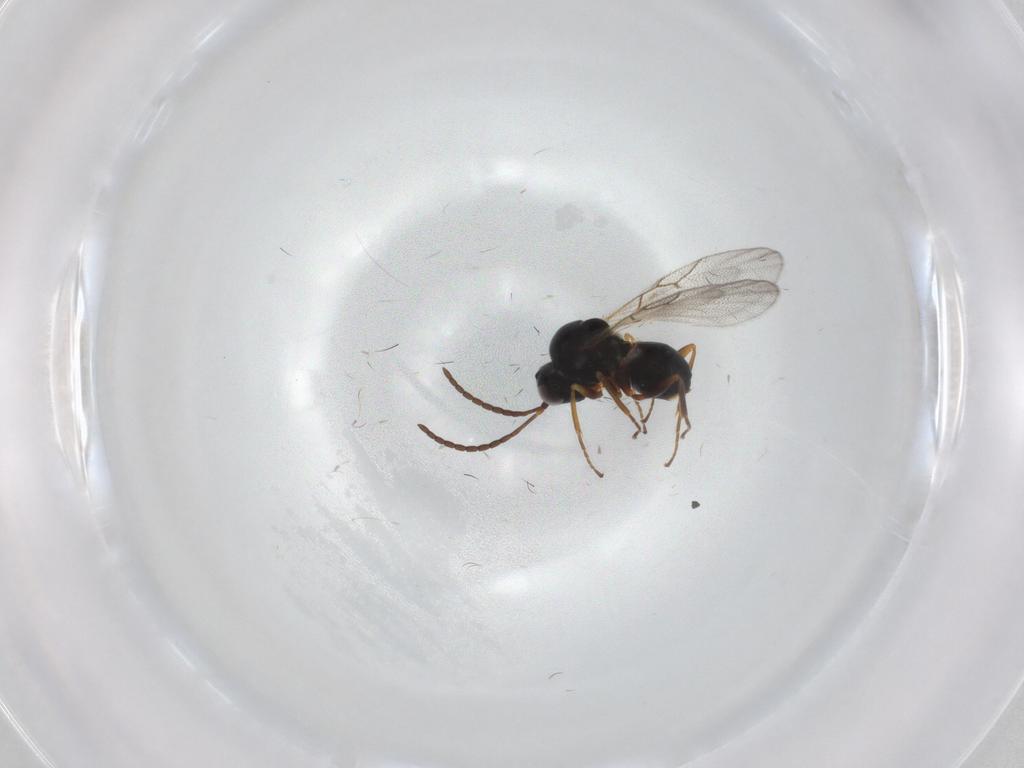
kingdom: Animalia
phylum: Arthropoda
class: Insecta
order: Hymenoptera
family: Figitidae
